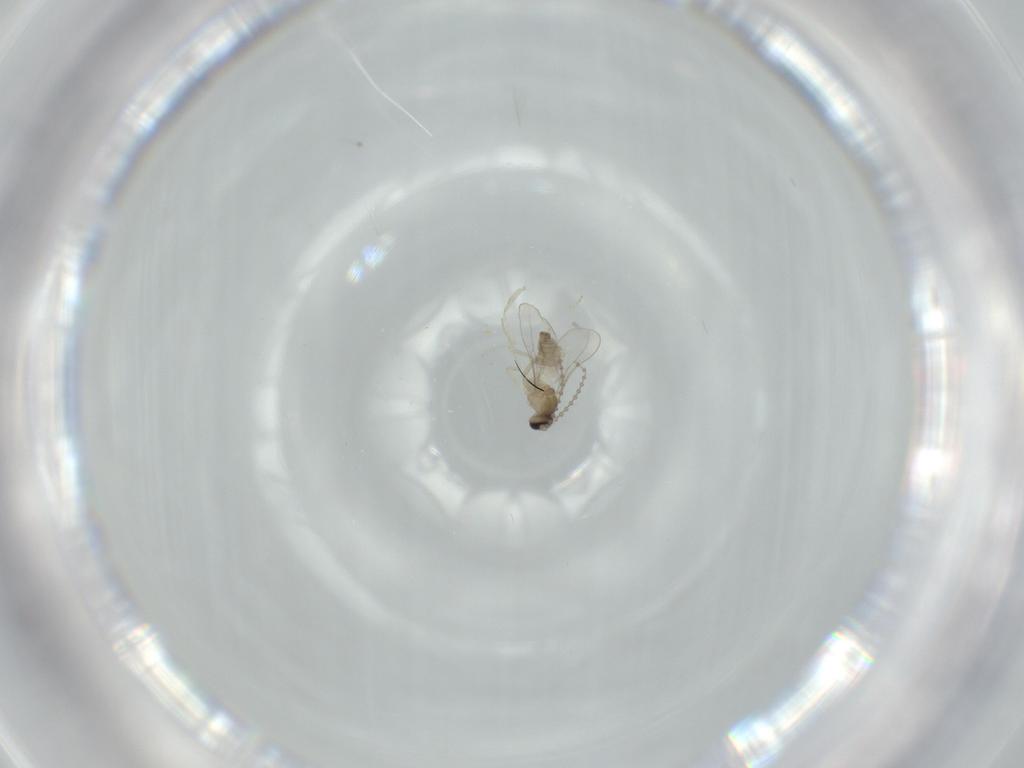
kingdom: Animalia
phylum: Arthropoda
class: Insecta
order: Diptera
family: Cecidomyiidae
